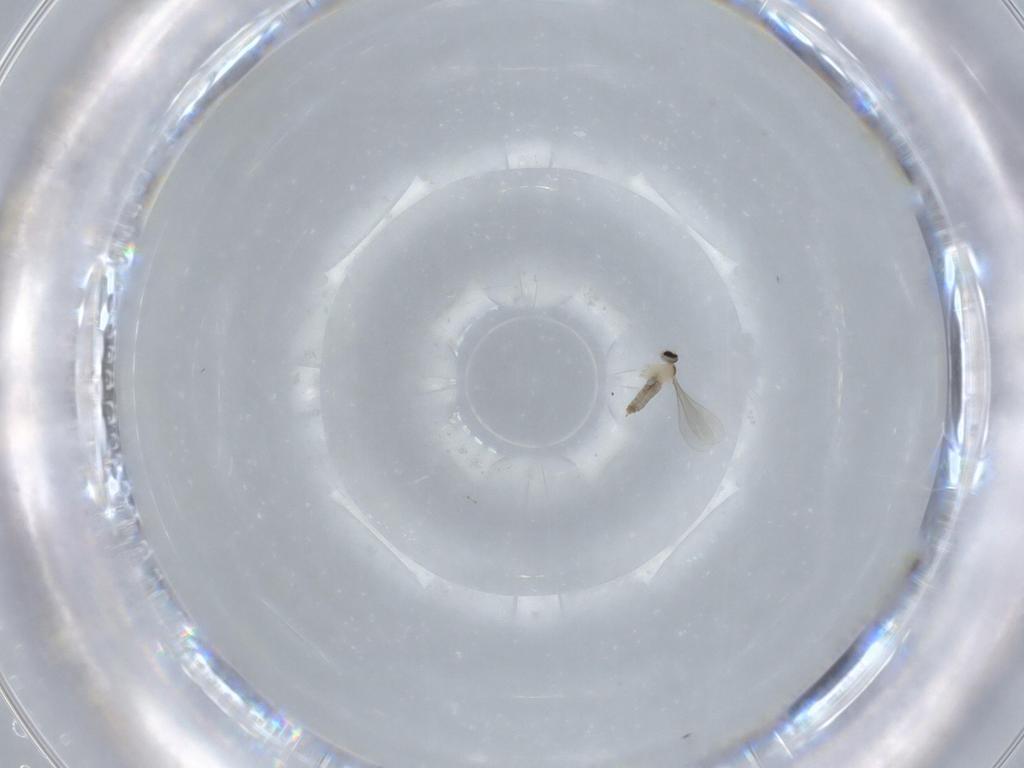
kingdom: Animalia
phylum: Arthropoda
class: Insecta
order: Diptera
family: Cecidomyiidae
